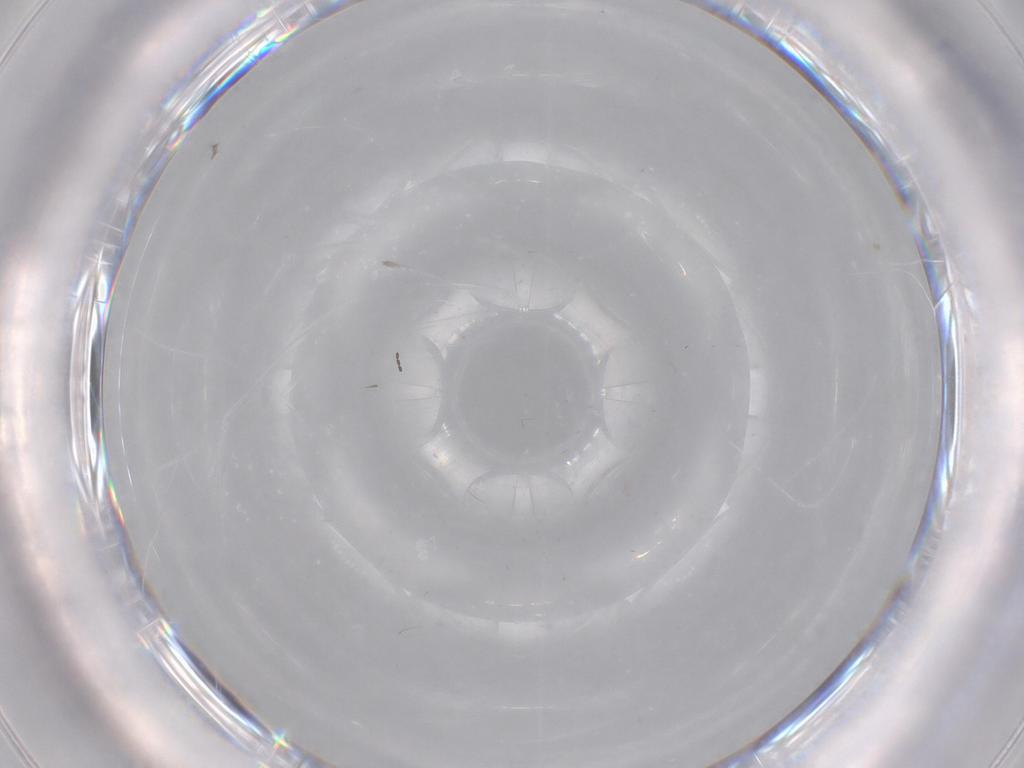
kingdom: Animalia
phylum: Arthropoda
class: Insecta
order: Diptera
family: Cecidomyiidae
